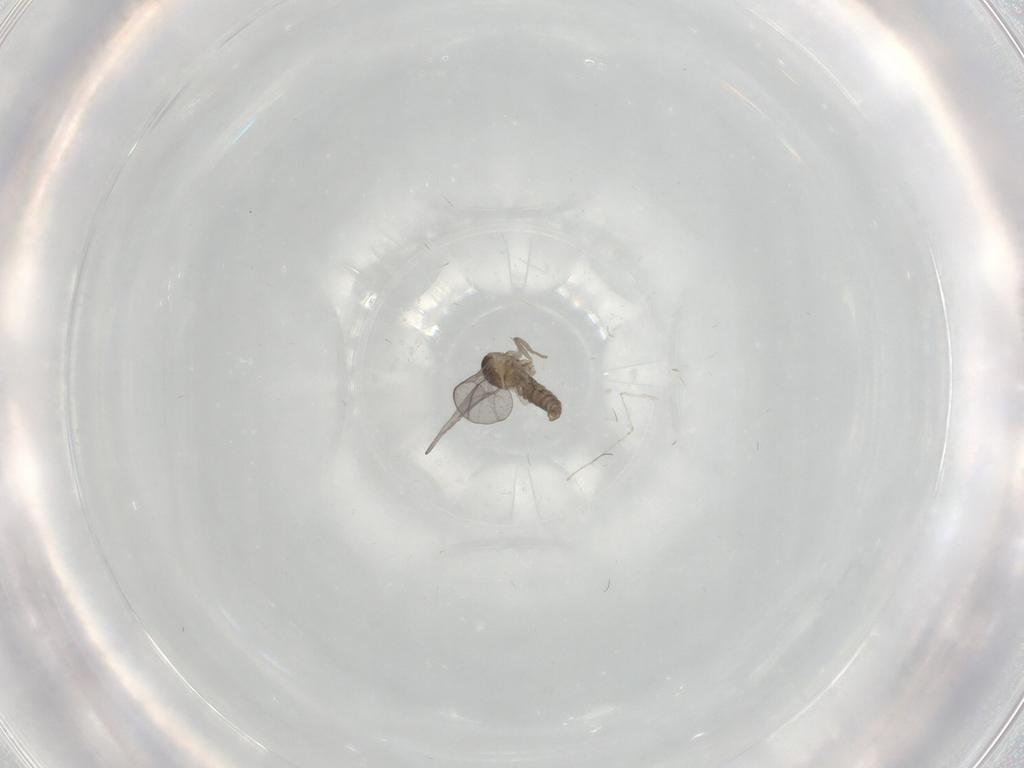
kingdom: Animalia
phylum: Arthropoda
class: Insecta
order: Diptera
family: Cecidomyiidae
